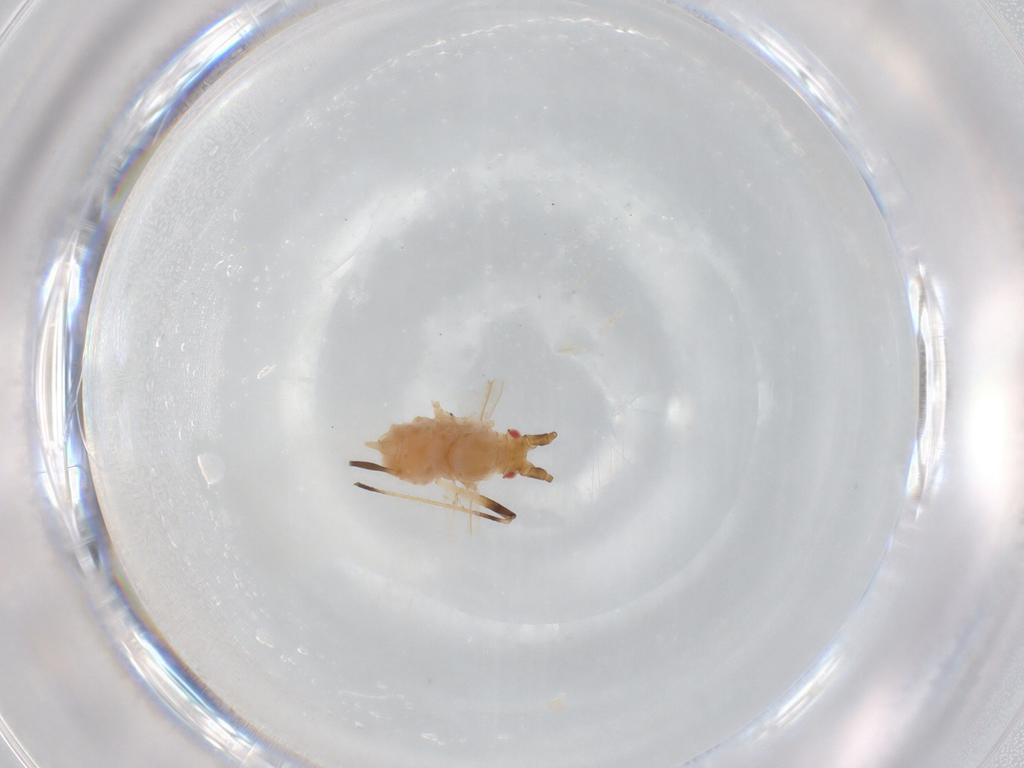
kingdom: Animalia
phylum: Arthropoda
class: Insecta
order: Hemiptera
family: Aphididae
